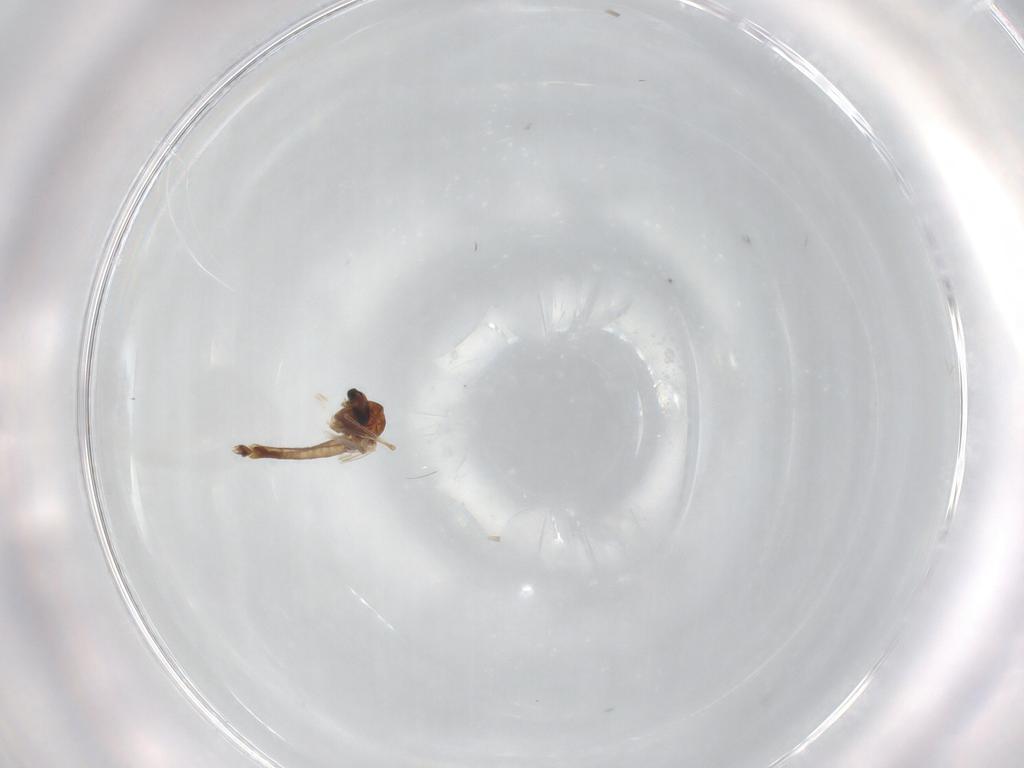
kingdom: Animalia
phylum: Arthropoda
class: Insecta
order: Diptera
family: Chironomidae
